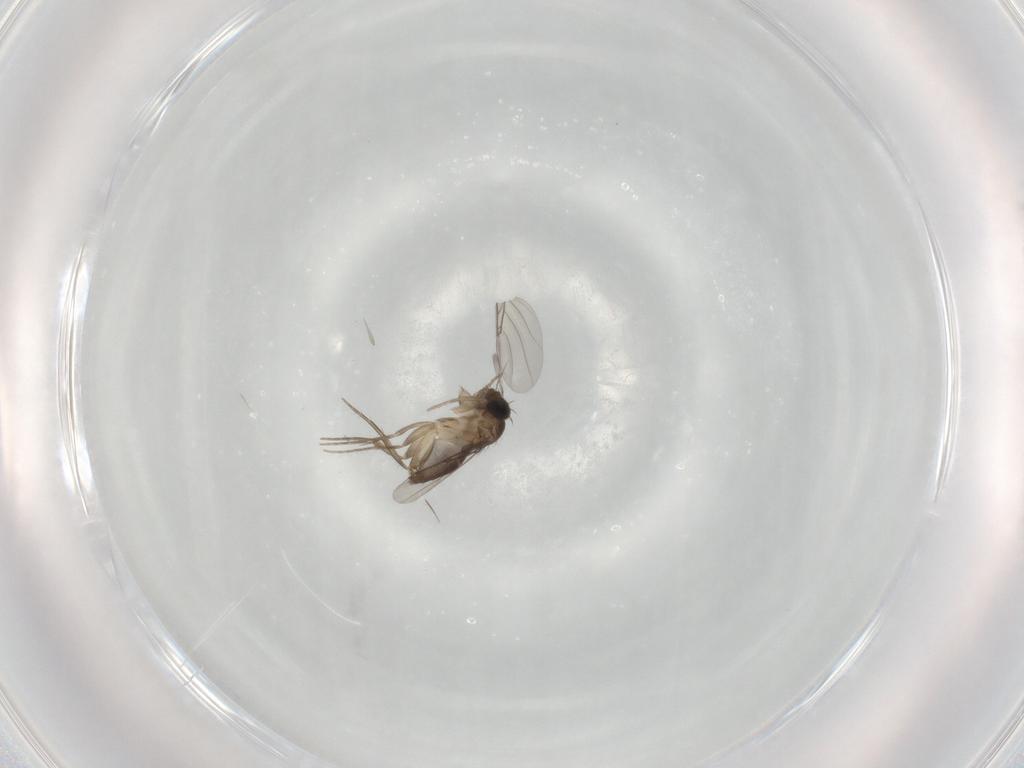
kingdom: Animalia
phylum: Arthropoda
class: Insecta
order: Diptera
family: Phoridae
